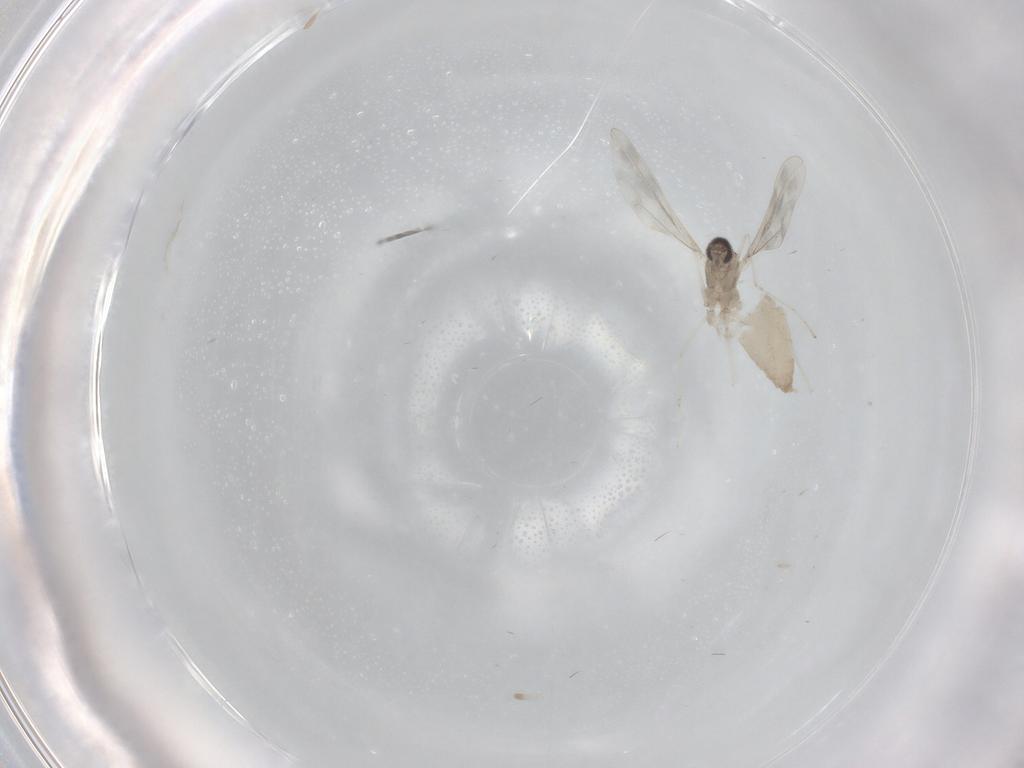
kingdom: Animalia
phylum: Arthropoda
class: Insecta
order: Diptera
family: Cecidomyiidae
